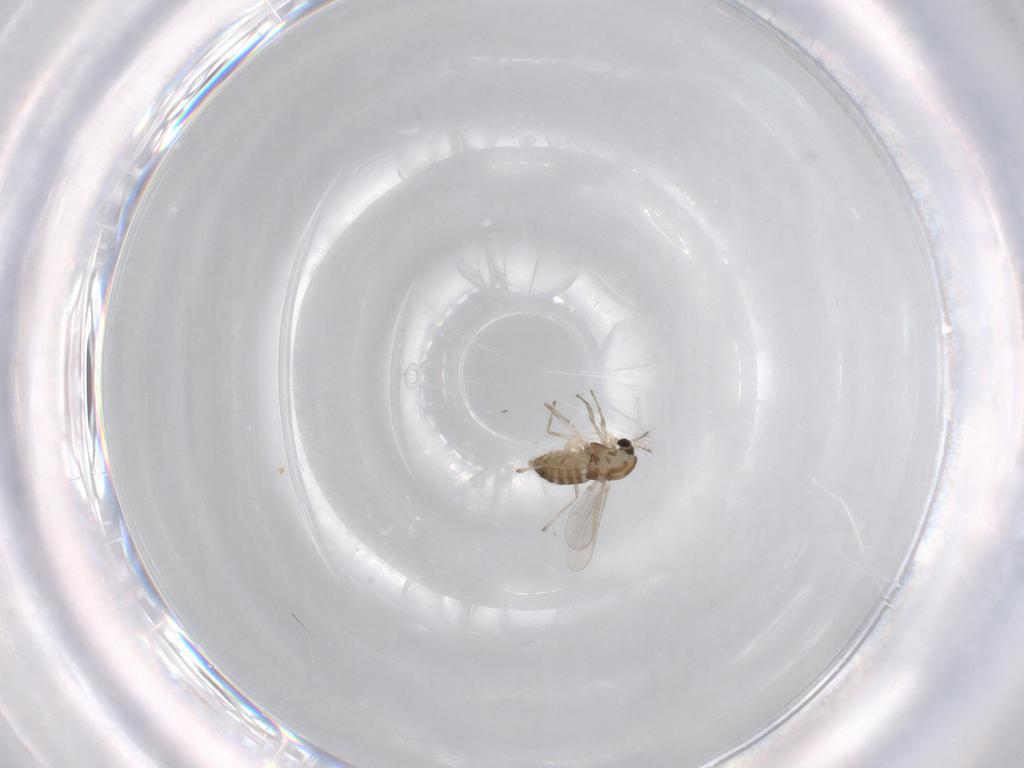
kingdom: Animalia
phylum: Arthropoda
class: Insecta
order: Diptera
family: Chironomidae
